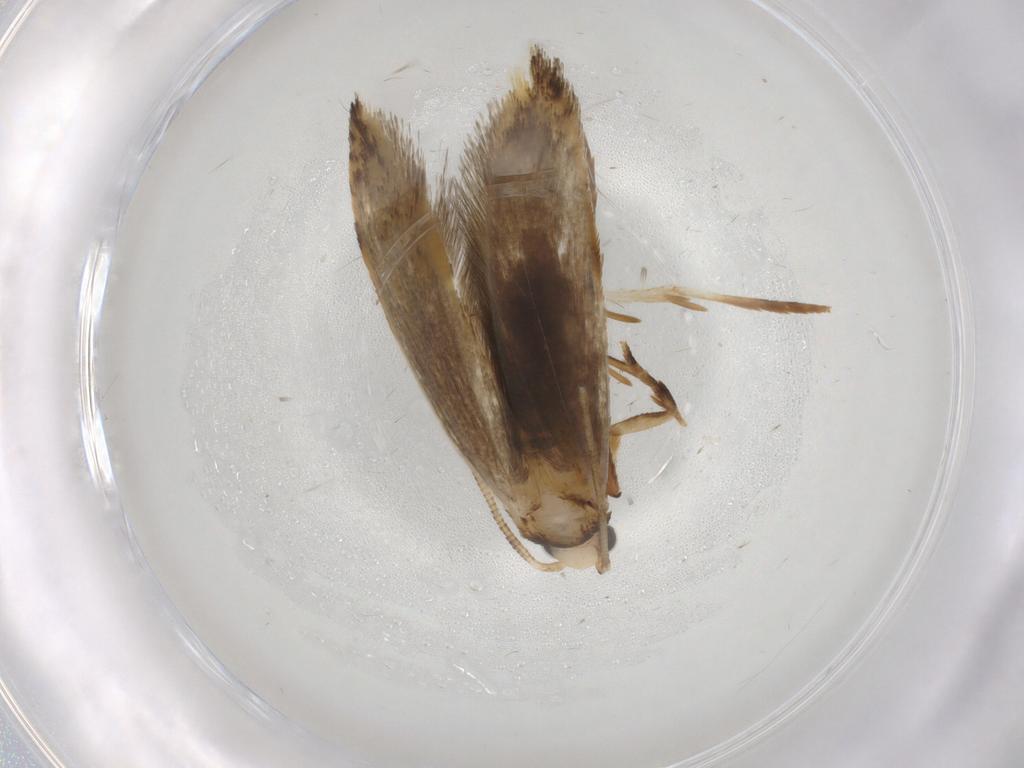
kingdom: Animalia
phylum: Arthropoda
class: Insecta
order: Lepidoptera
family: Tineidae
